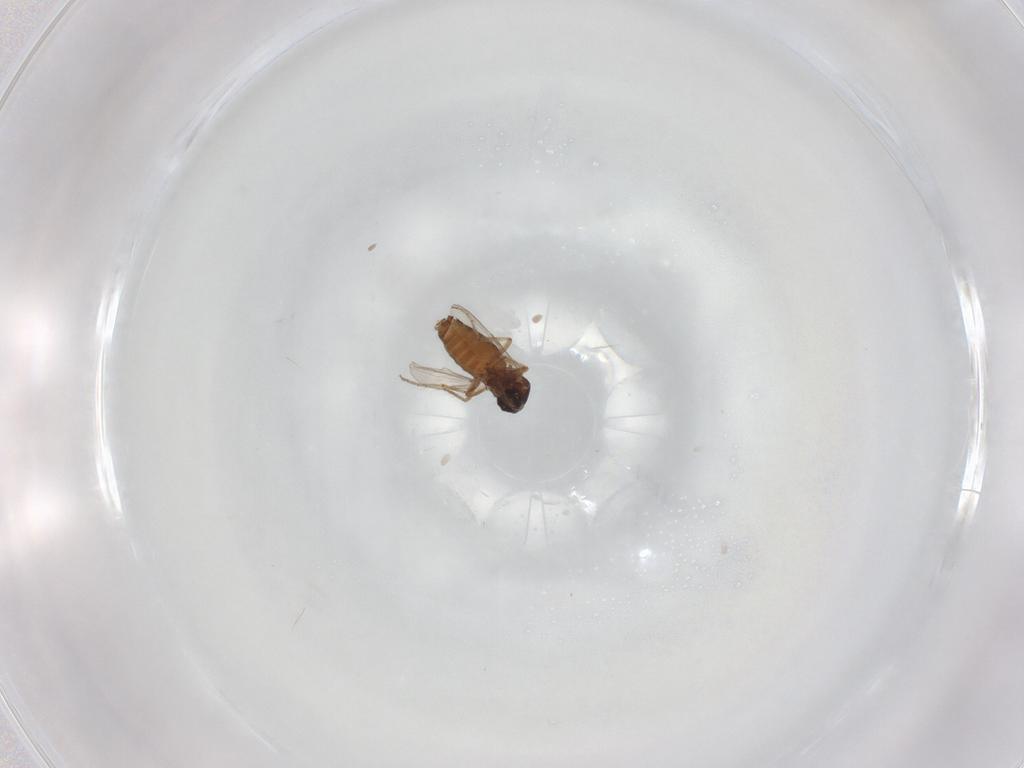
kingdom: Animalia
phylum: Arthropoda
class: Insecta
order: Diptera
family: Ceratopogonidae
